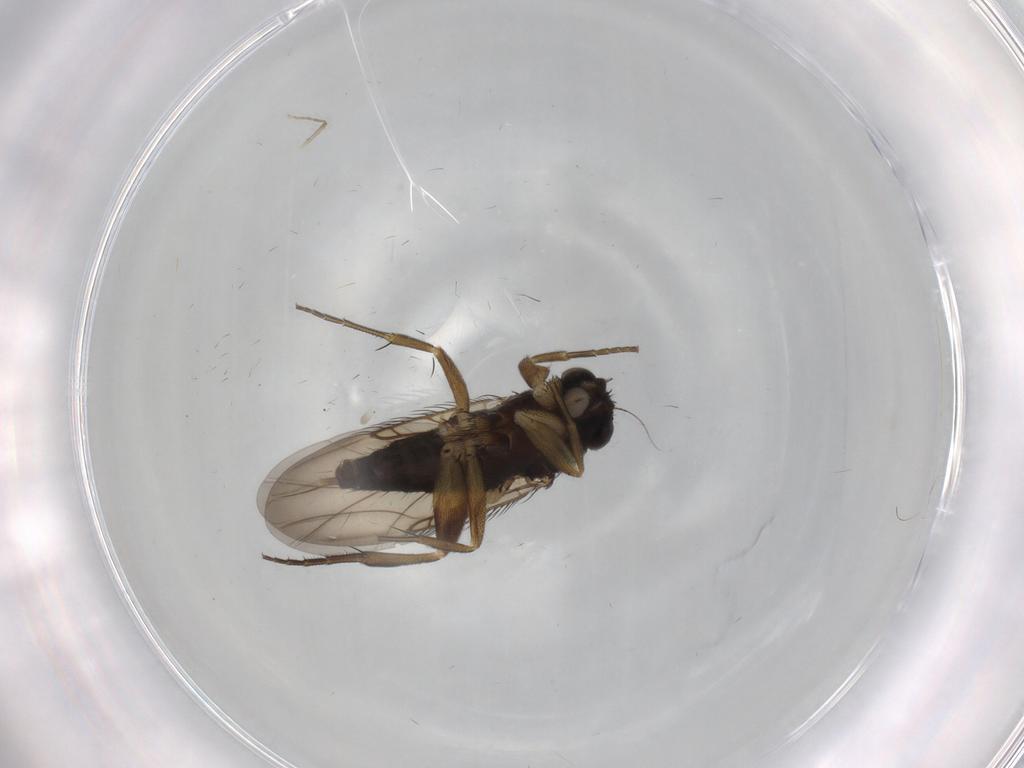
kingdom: Animalia
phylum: Arthropoda
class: Insecta
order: Diptera
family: Phoridae
